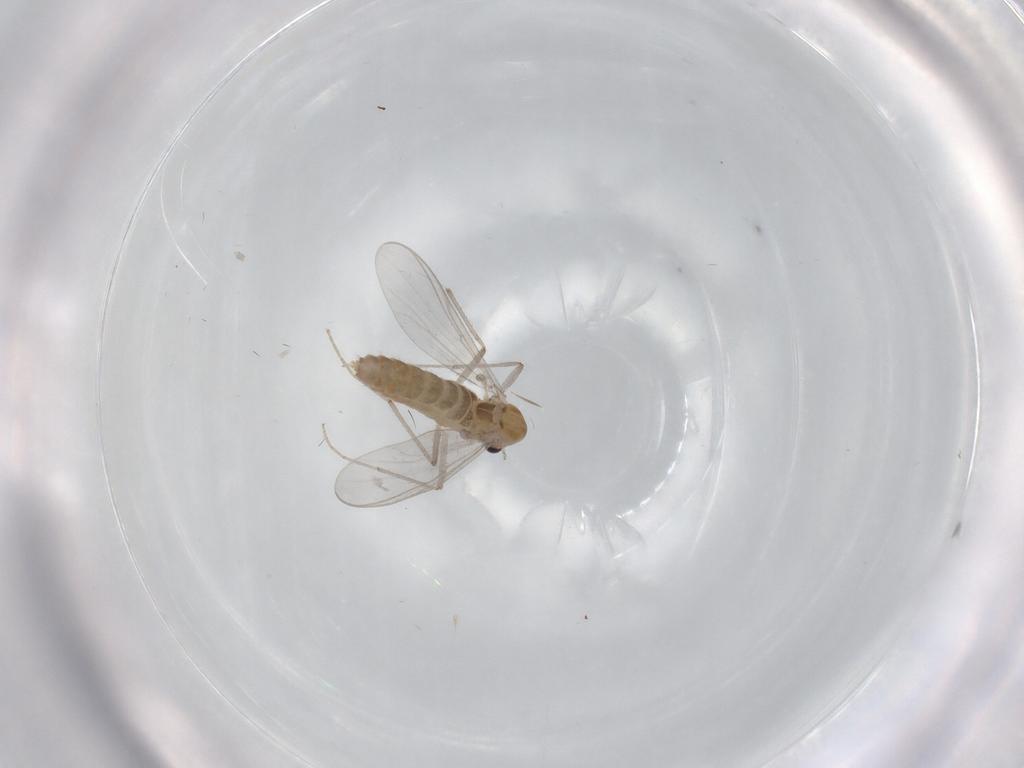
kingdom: Animalia
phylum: Arthropoda
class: Insecta
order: Diptera
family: Chironomidae
